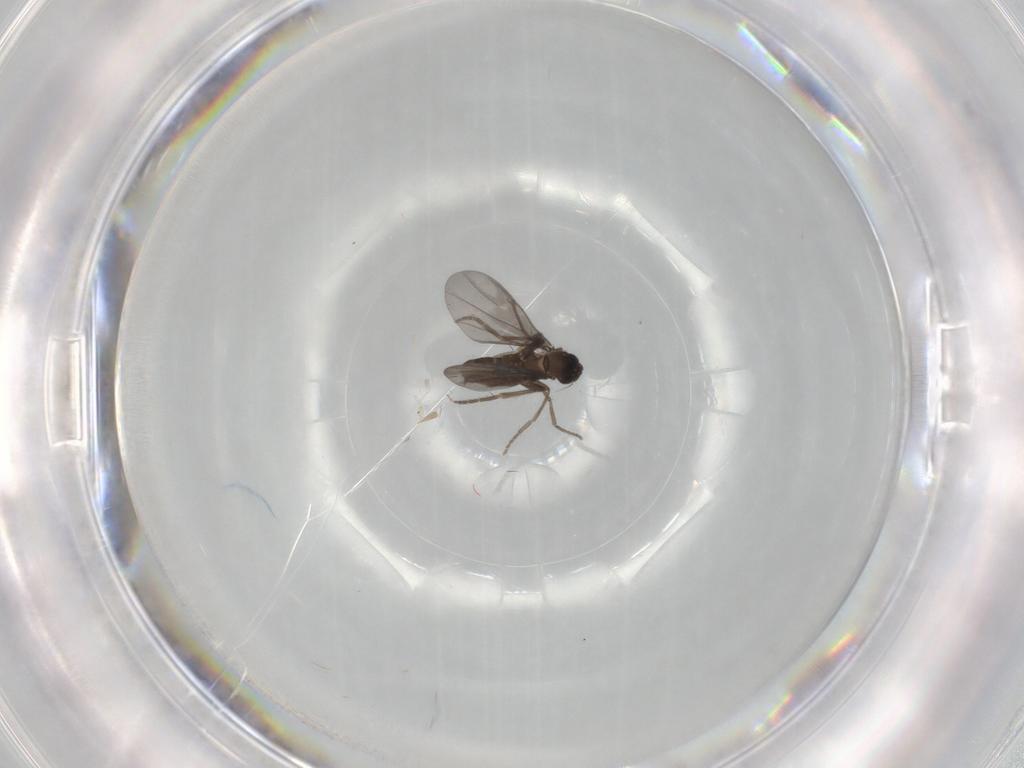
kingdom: Animalia
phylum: Arthropoda
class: Insecta
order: Diptera
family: Phoridae
